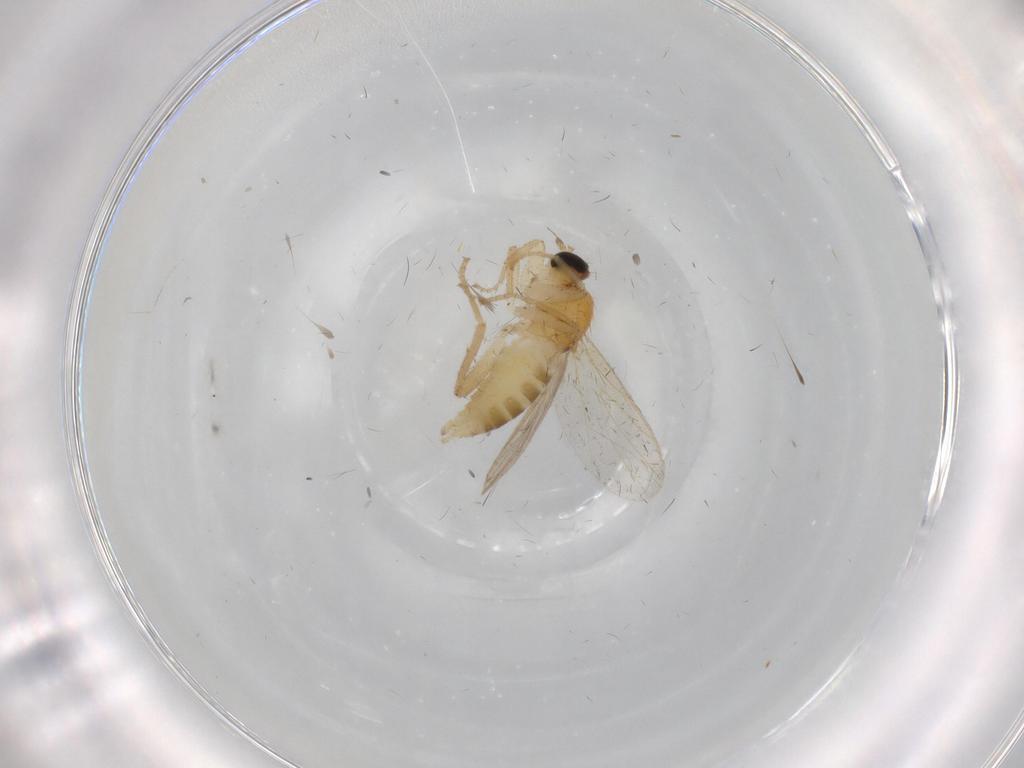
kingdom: Animalia
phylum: Arthropoda
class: Insecta
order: Diptera
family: Hybotidae
